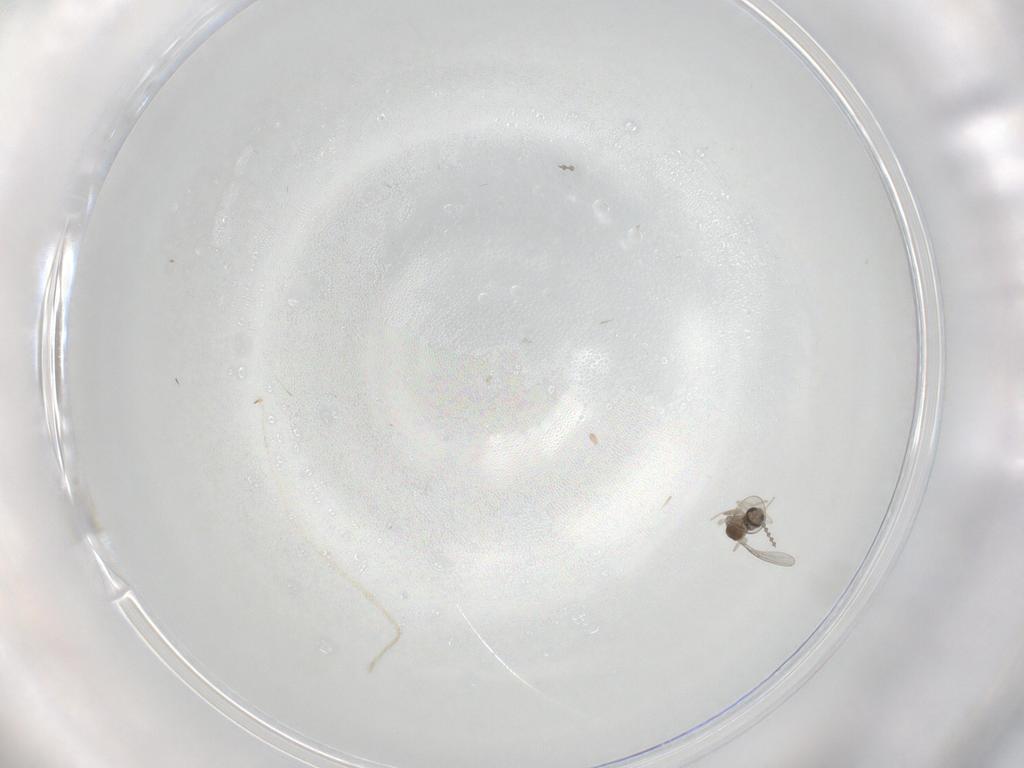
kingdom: Animalia
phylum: Arthropoda
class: Insecta
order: Diptera
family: Cecidomyiidae
